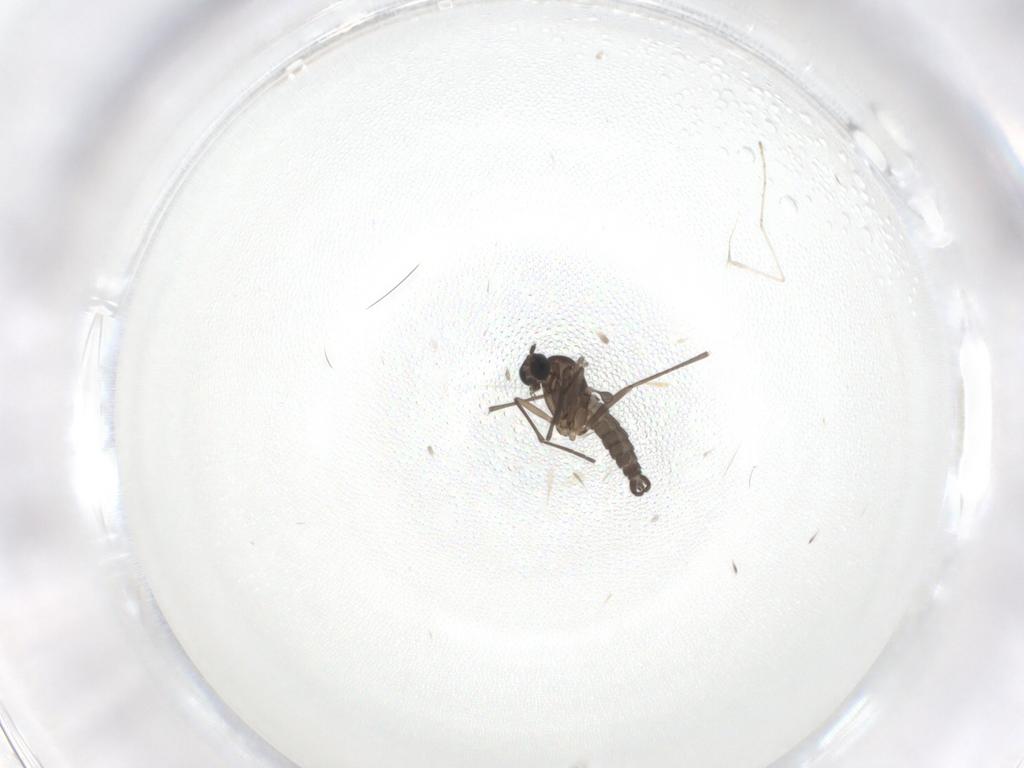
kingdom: Animalia
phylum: Arthropoda
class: Insecta
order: Diptera
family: Sciaridae
